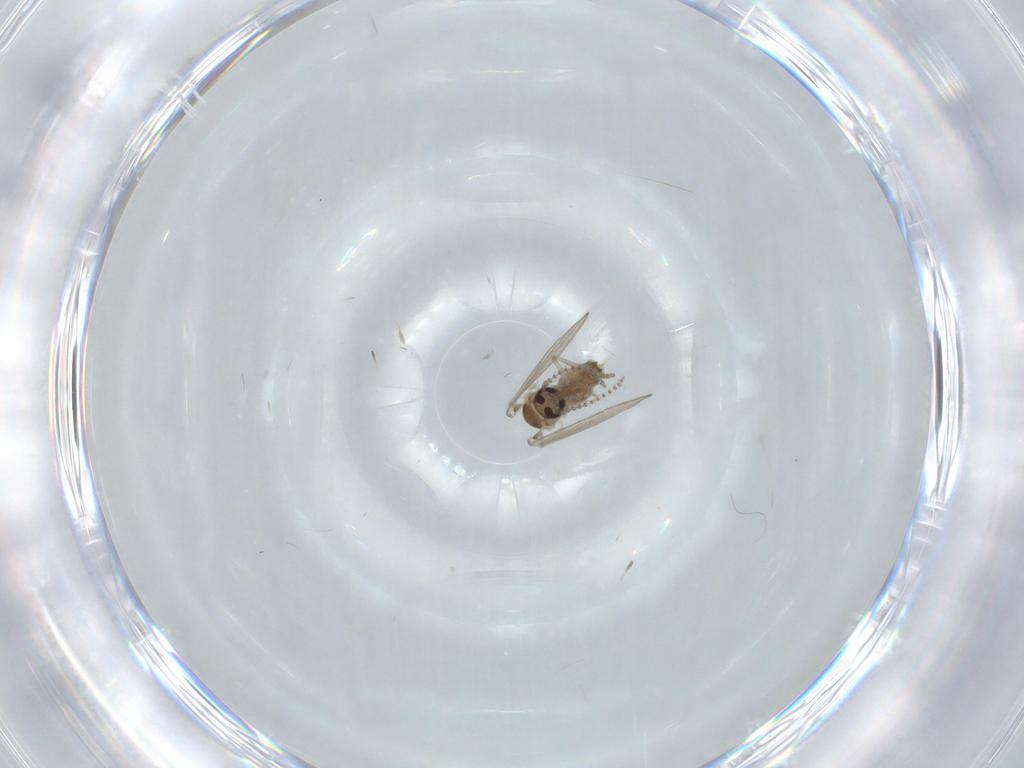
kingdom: Animalia
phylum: Arthropoda
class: Insecta
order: Diptera
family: Psychodidae
